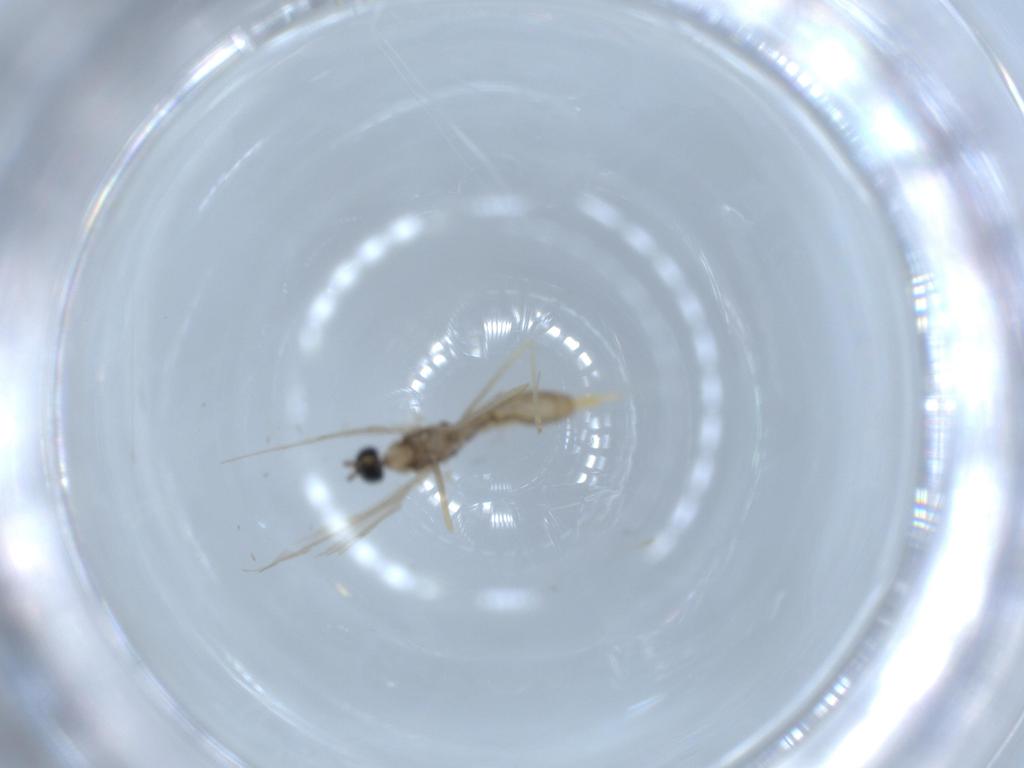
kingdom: Animalia
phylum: Arthropoda
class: Insecta
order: Diptera
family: Cecidomyiidae
